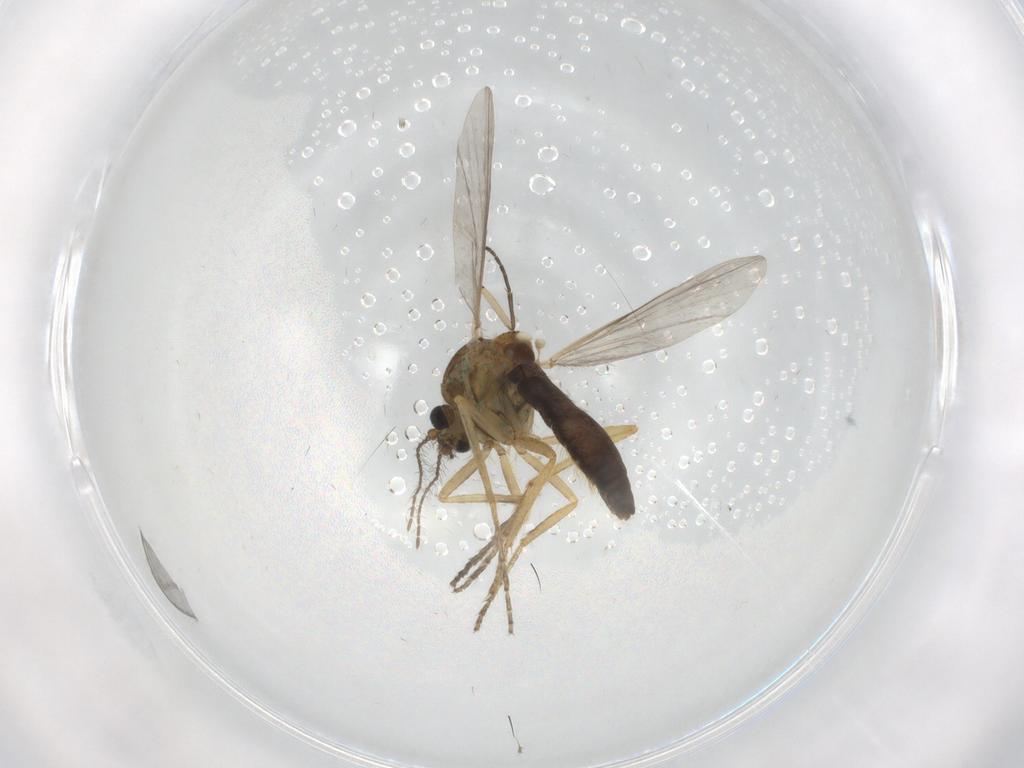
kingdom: Animalia
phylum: Arthropoda
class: Insecta
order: Diptera
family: Ceratopogonidae
